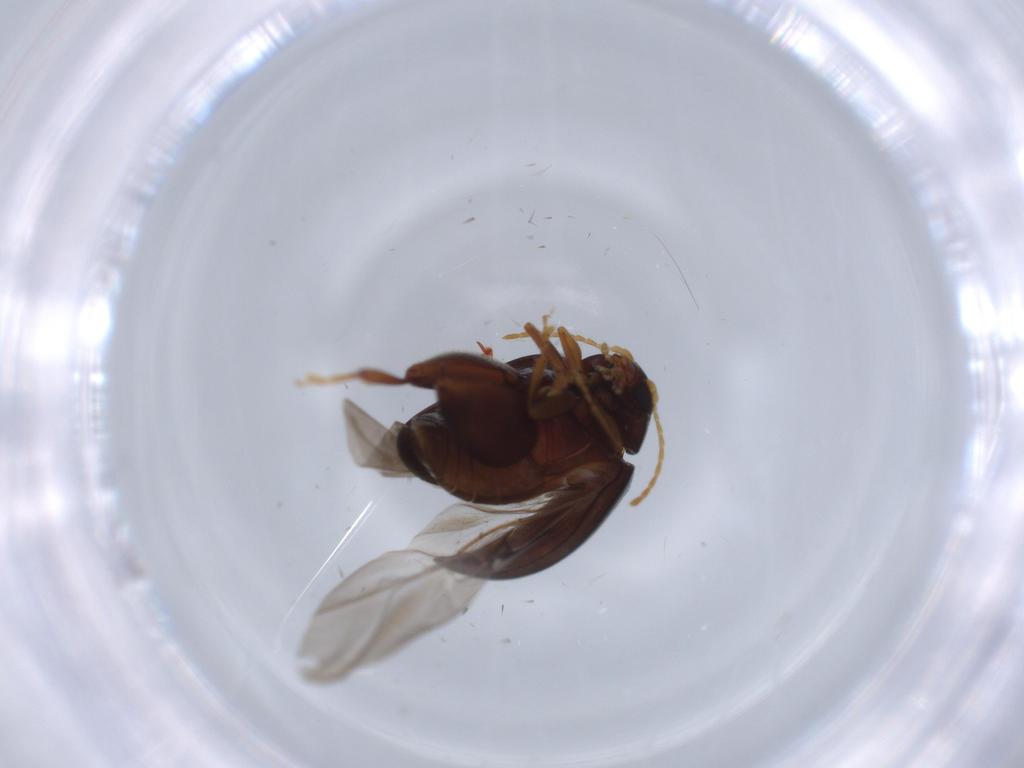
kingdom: Animalia
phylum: Arthropoda
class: Insecta
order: Coleoptera
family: Chrysomelidae
